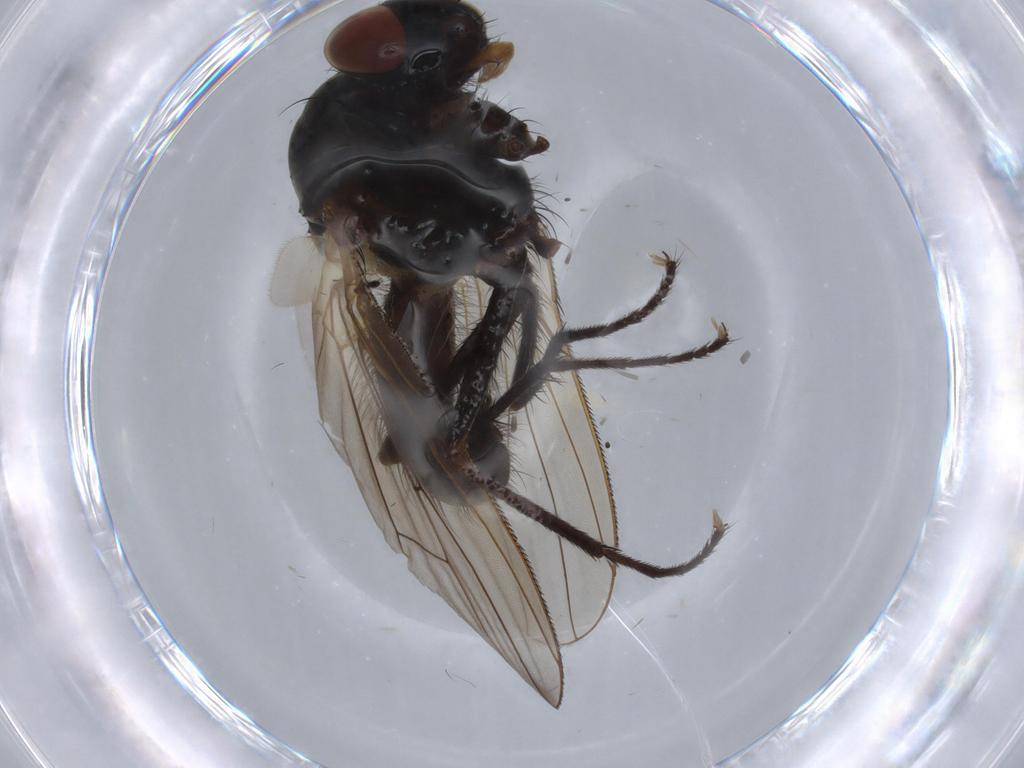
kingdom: Animalia
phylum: Arthropoda
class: Insecta
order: Diptera
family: Anthomyiidae
